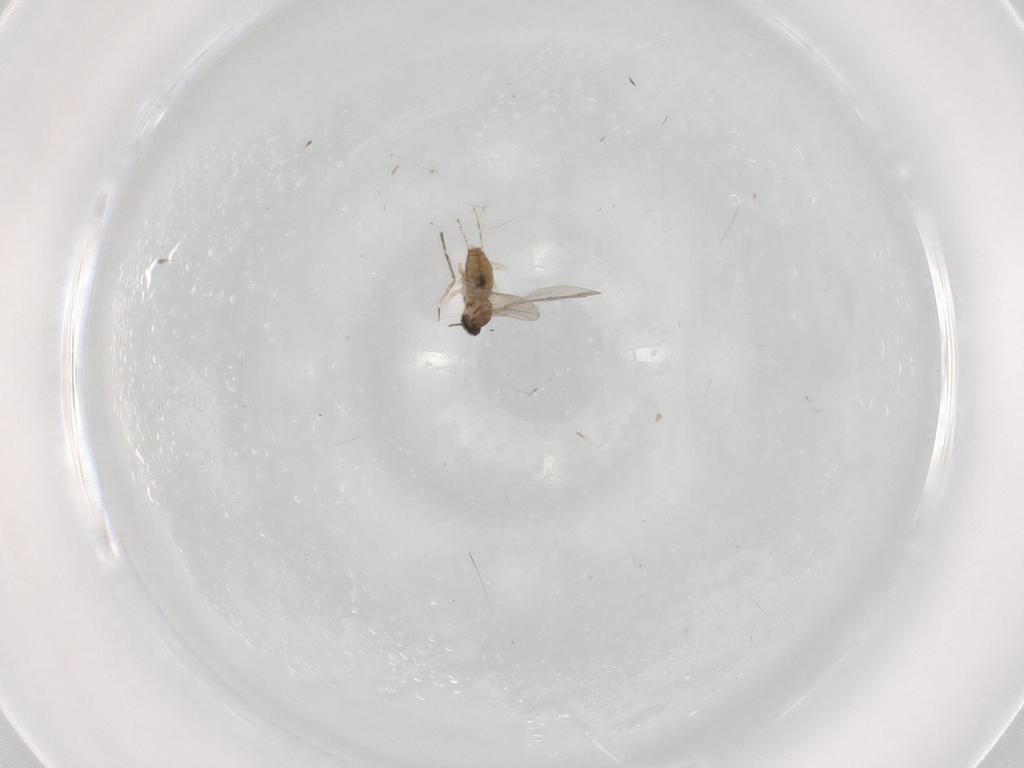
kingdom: Animalia
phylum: Arthropoda
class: Insecta
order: Diptera
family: Cecidomyiidae
